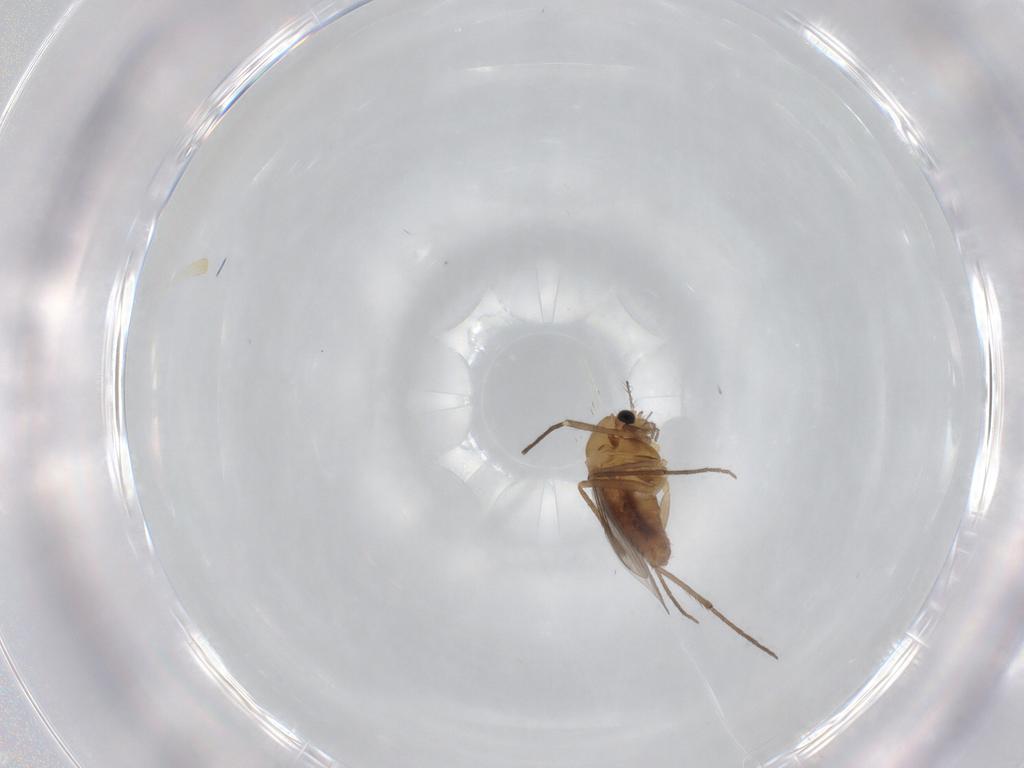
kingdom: Animalia
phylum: Arthropoda
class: Insecta
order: Diptera
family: Chironomidae
